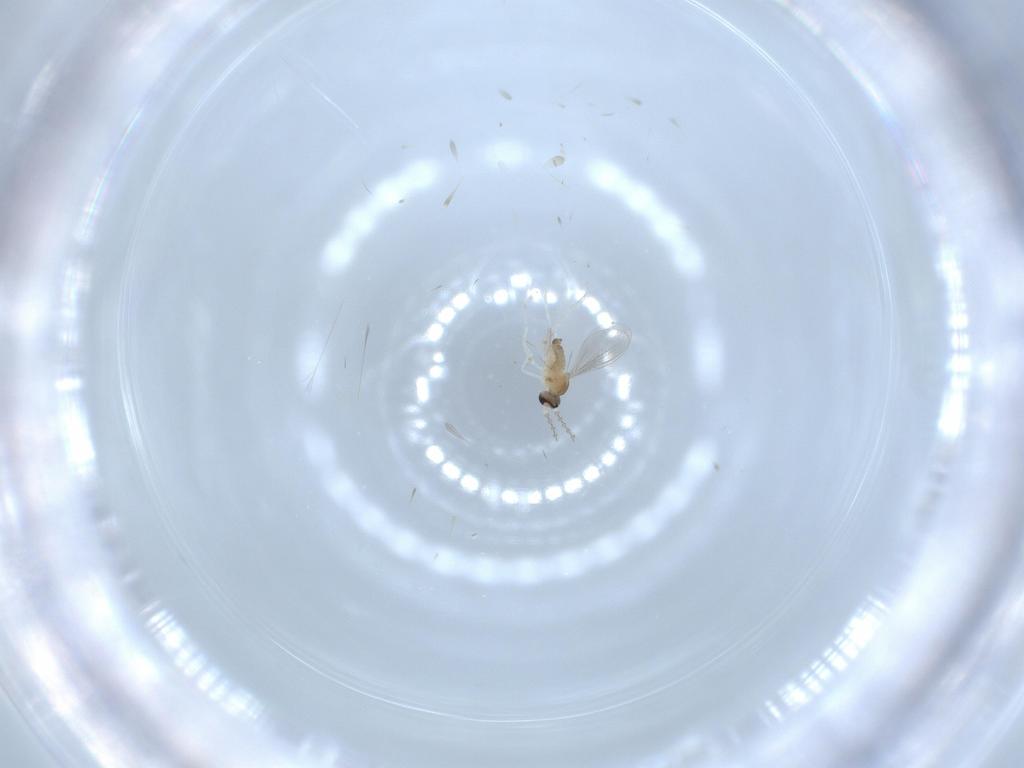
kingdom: Animalia
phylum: Arthropoda
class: Insecta
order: Diptera
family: Cecidomyiidae
